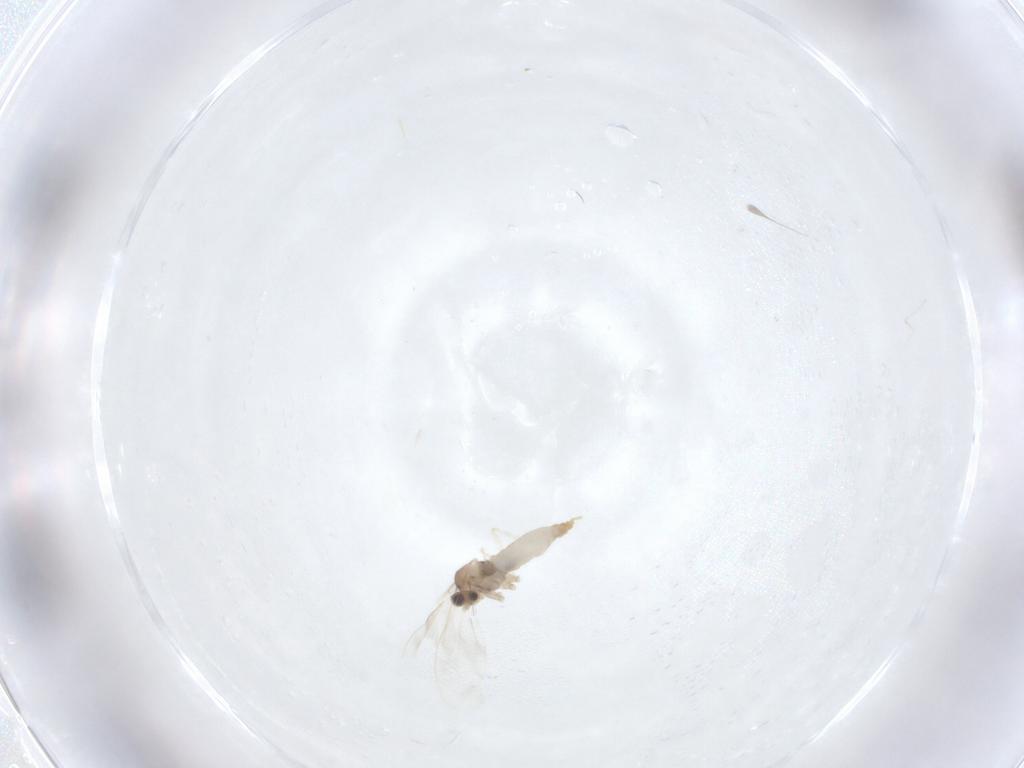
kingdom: Animalia
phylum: Arthropoda
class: Insecta
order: Diptera
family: Cecidomyiidae
